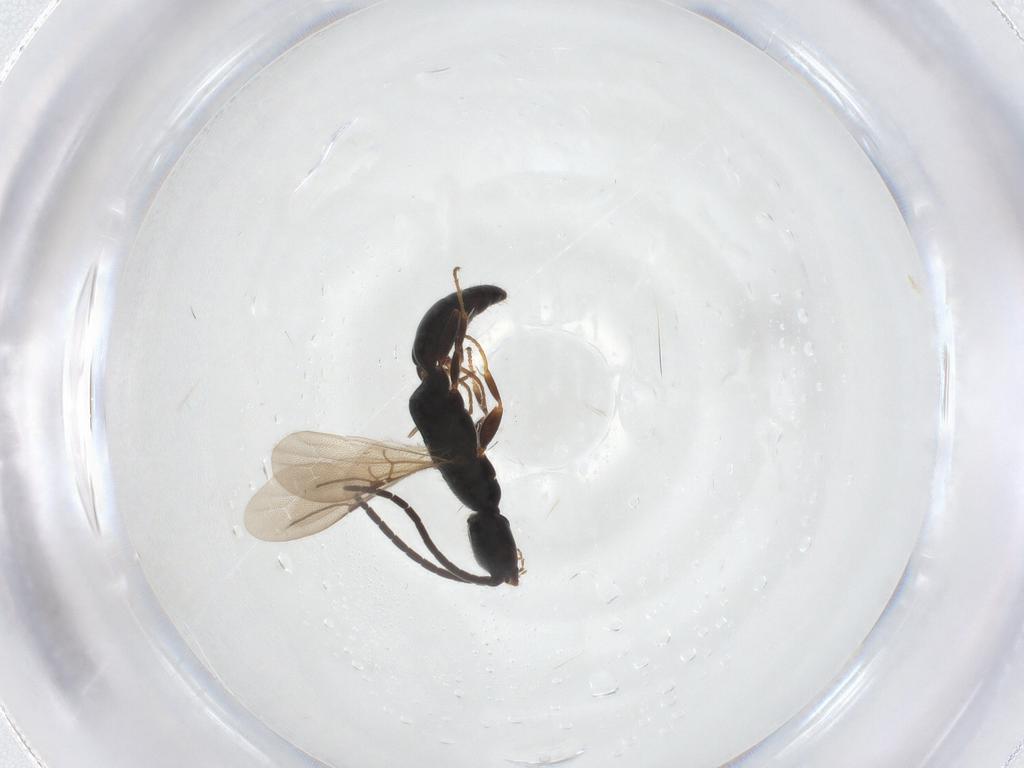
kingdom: Animalia
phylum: Arthropoda
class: Insecta
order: Hymenoptera
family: Bethylidae
